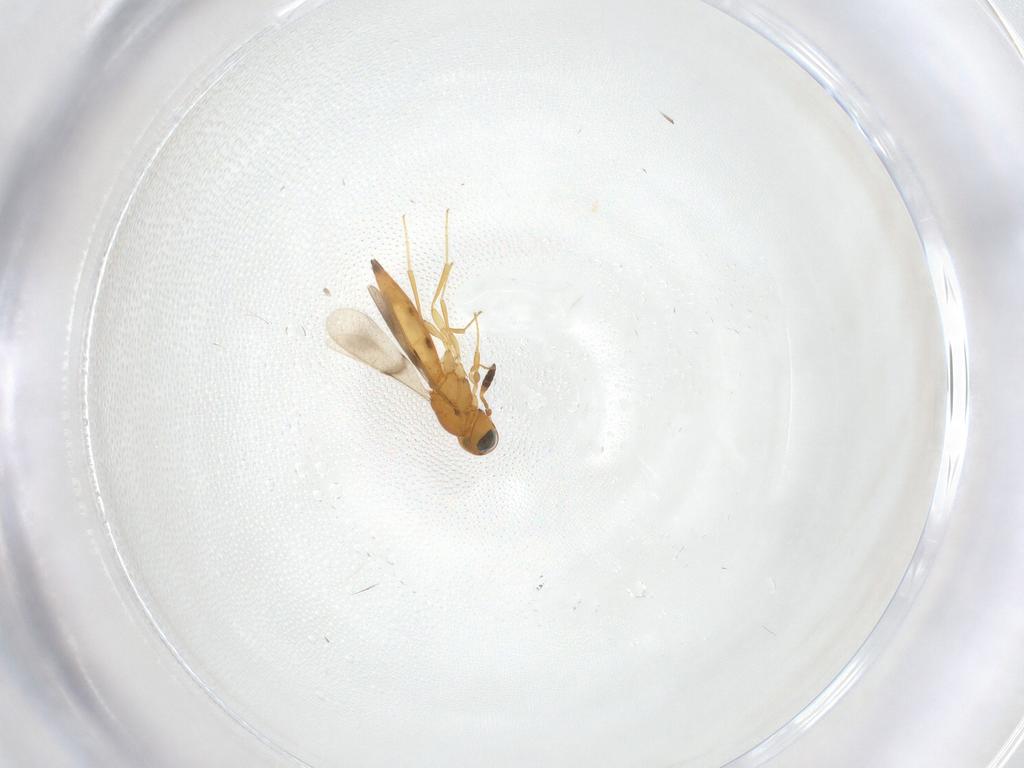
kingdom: Animalia
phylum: Arthropoda
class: Insecta
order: Hymenoptera
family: Scelionidae
